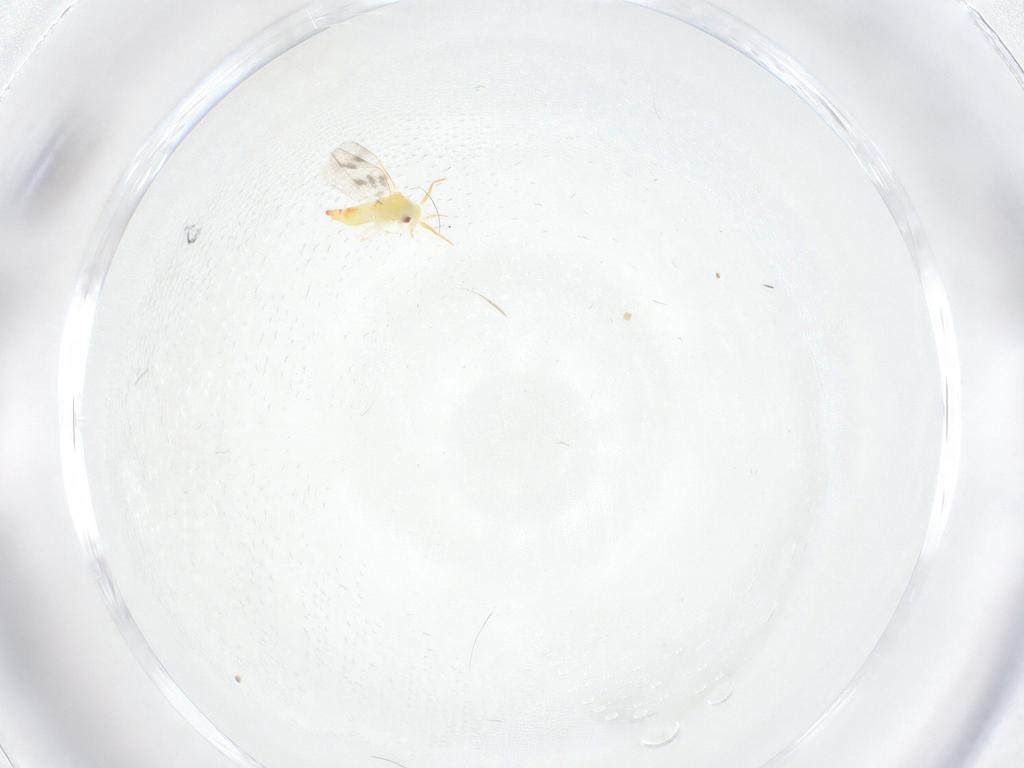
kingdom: Animalia
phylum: Arthropoda
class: Insecta
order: Hemiptera
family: Aleyrodidae
